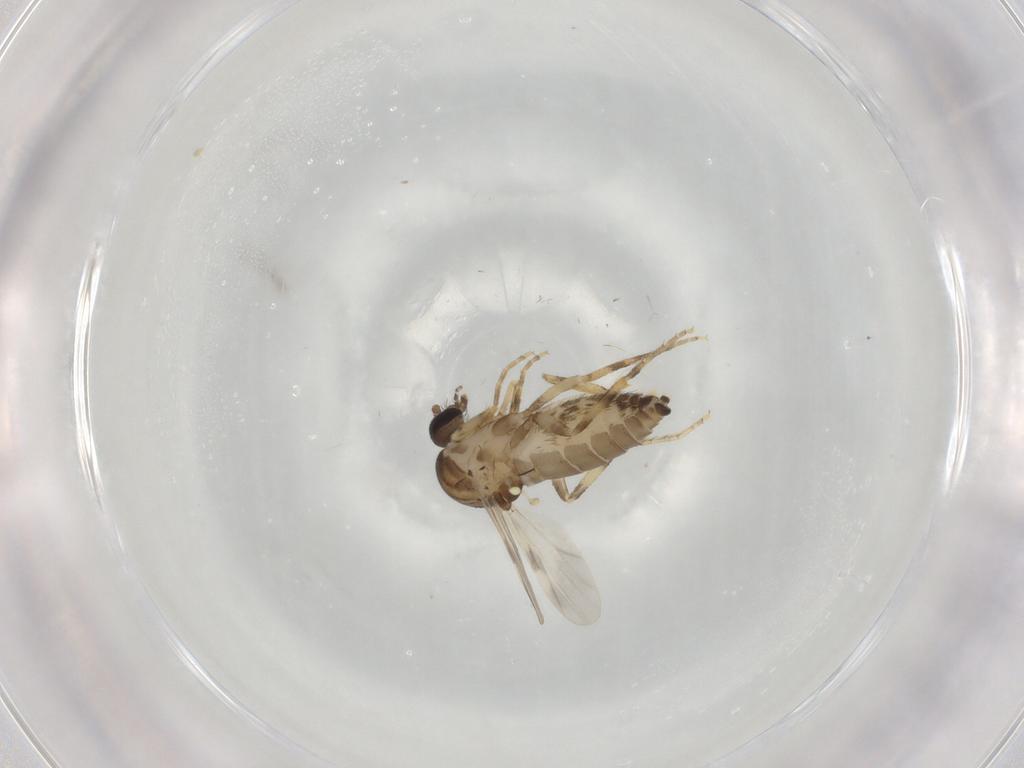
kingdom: Animalia
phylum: Arthropoda
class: Insecta
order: Diptera
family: Ceratopogonidae
